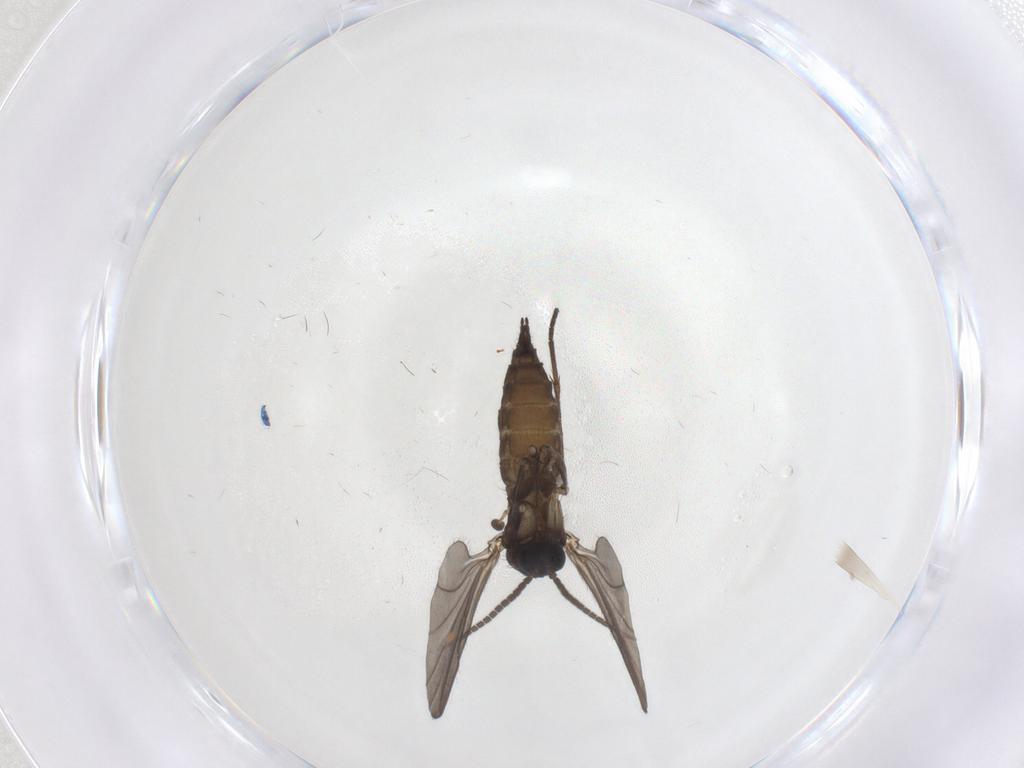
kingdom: Animalia
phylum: Arthropoda
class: Insecta
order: Diptera
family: Sciaridae
